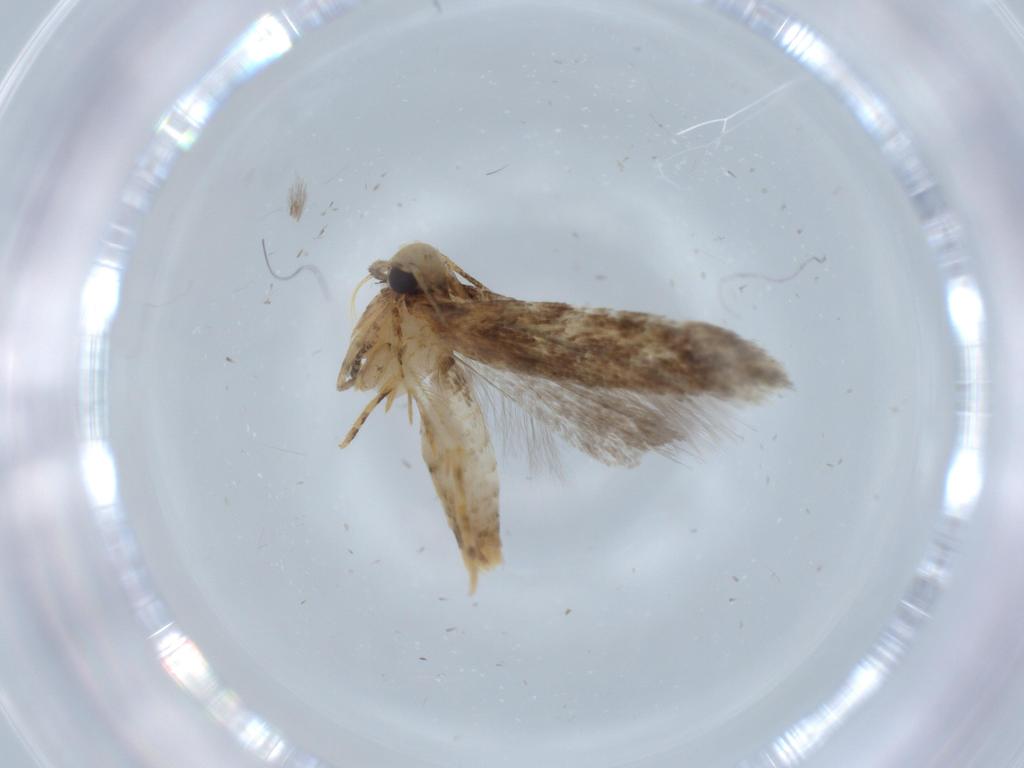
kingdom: Animalia
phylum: Arthropoda
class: Insecta
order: Lepidoptera
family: Gelechiidae
